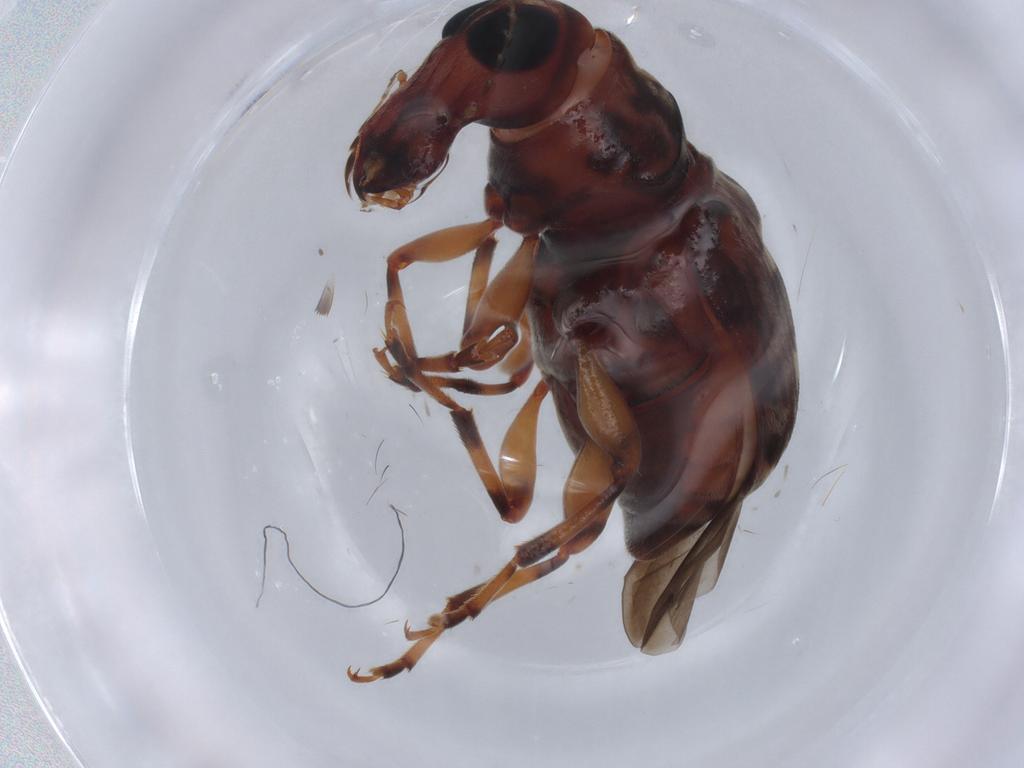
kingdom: Animalia
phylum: Arthropoda
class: Insecta
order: Coleoptera
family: Anthribidae
